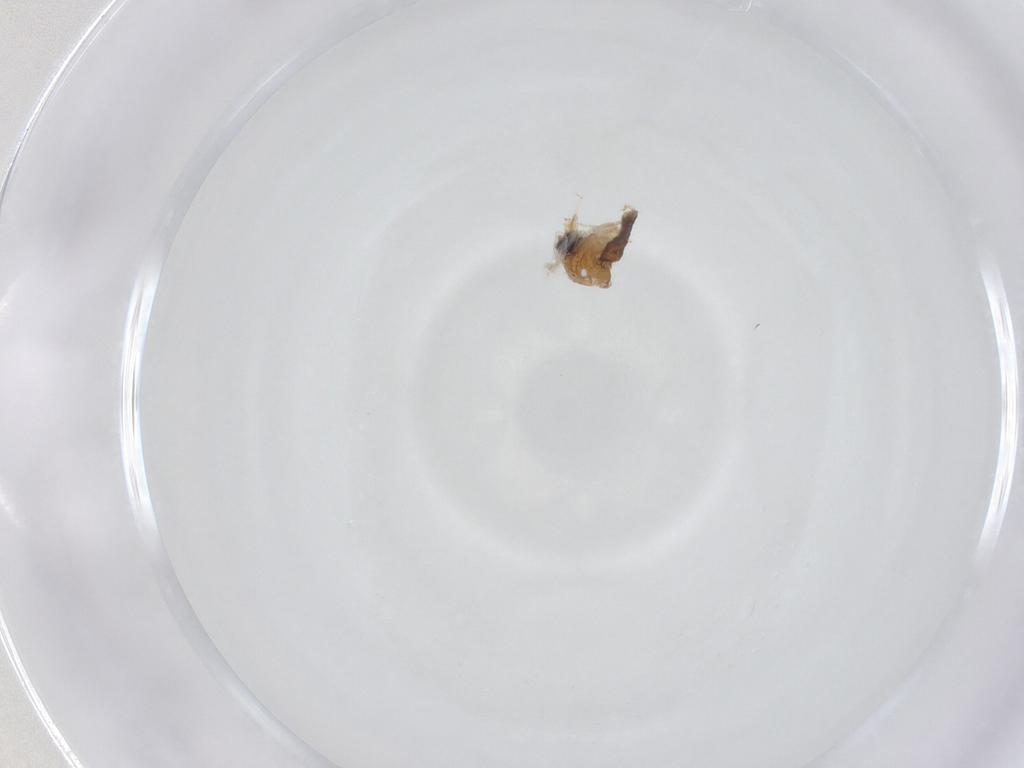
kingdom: Animalia
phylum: Arthropoda
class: Insecta
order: Diptera
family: Ceratopogonidae
